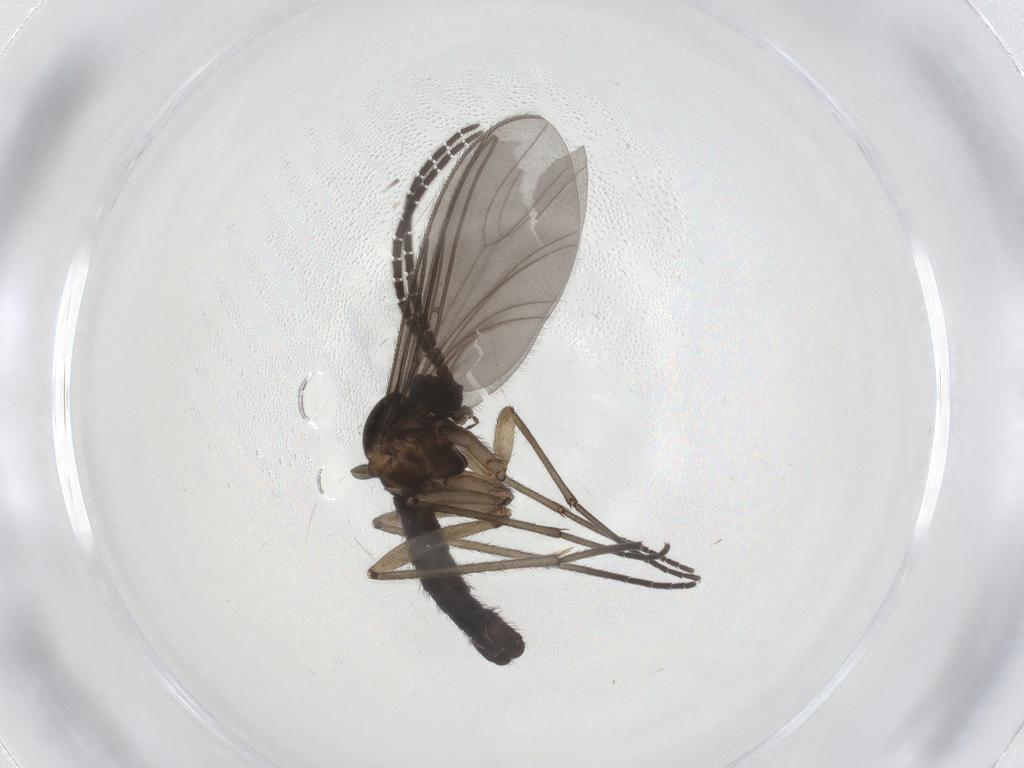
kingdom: Animalia
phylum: Arthropoda
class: Insecta
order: Diptera
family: Sciaridae
